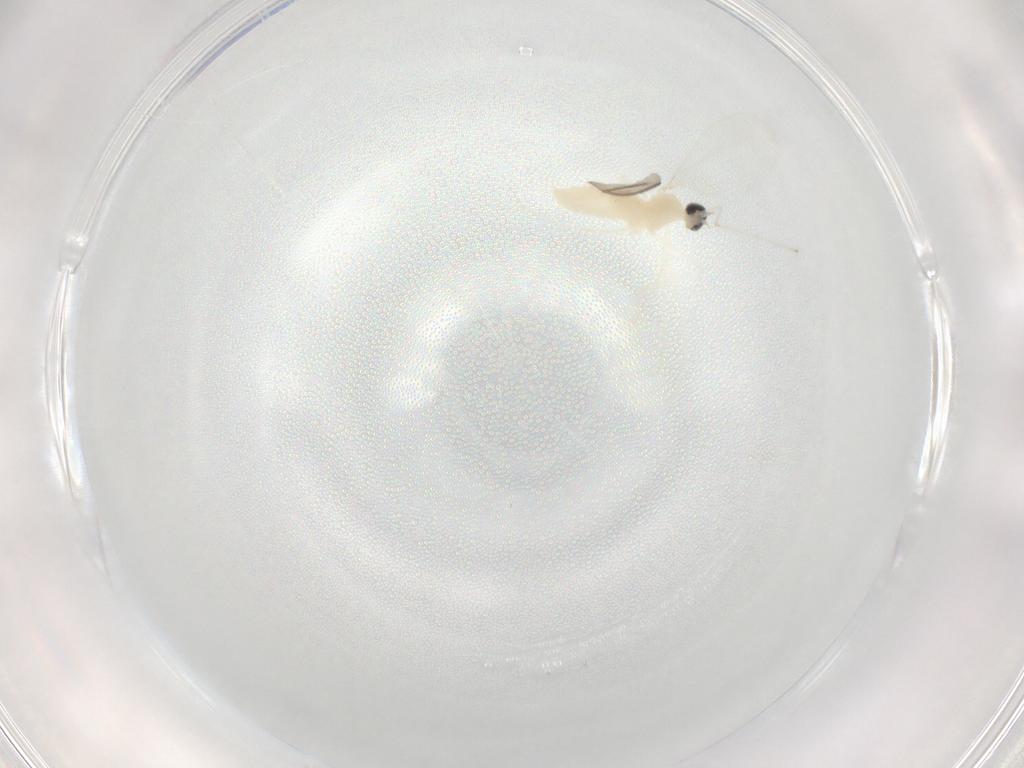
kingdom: Animalia
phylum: Arthropoda
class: Insecta
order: Diptera
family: Cecidomyiidae
